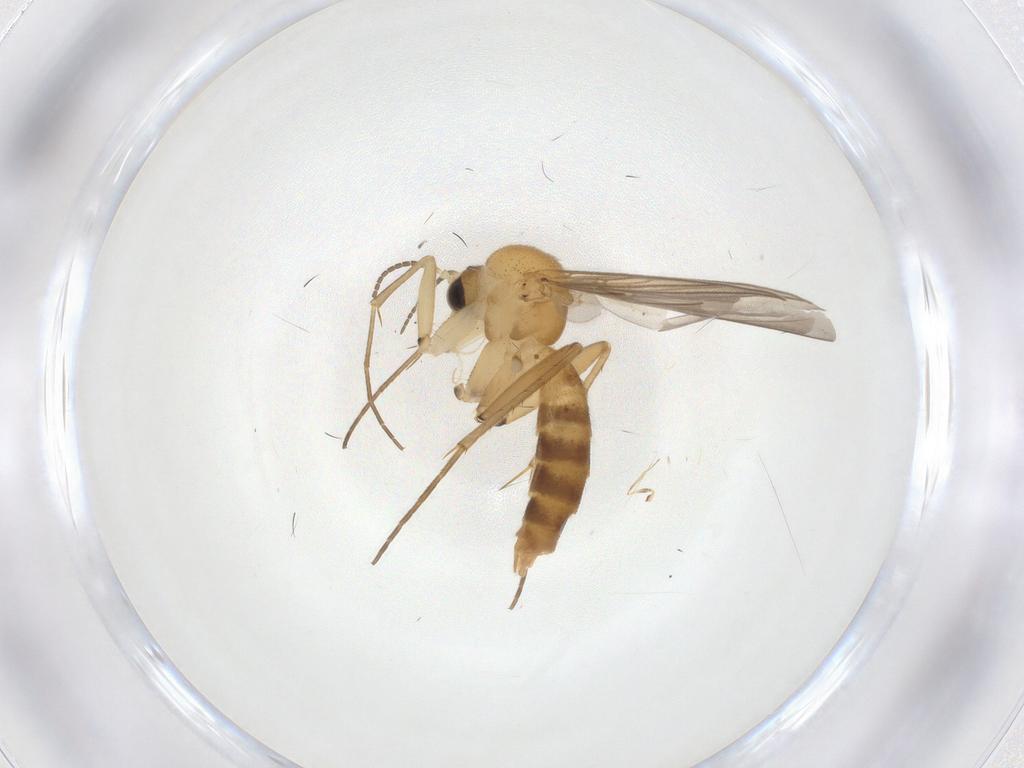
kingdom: Animalia
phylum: Arthropoda
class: Insecta
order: Diptera
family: Mycetophilidae
